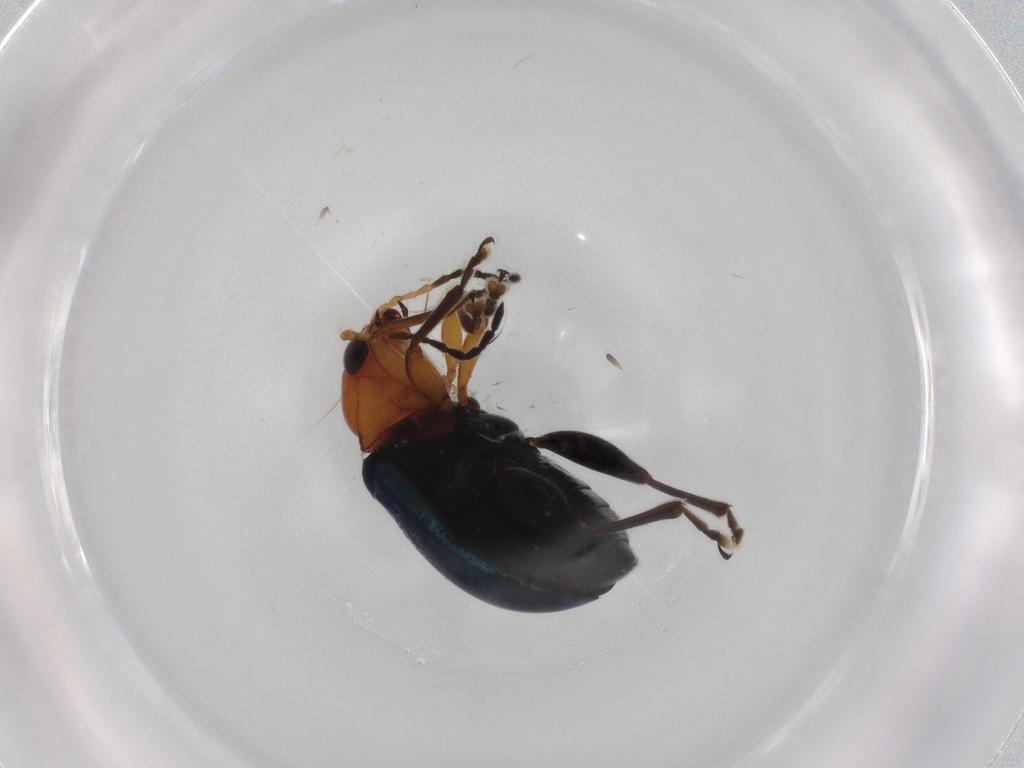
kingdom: Animalia
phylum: Arthropoda
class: Insecta
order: Coleoptera
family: Chrysomelidae
